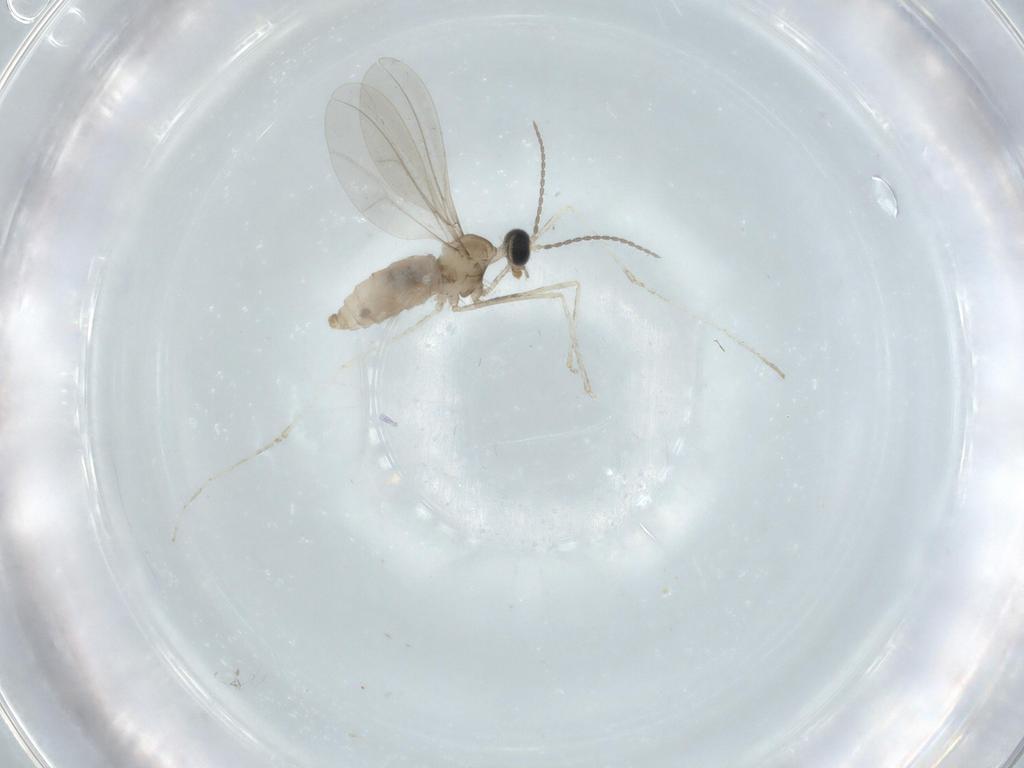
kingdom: Animalia
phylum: Arthropoda
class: Insecta
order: Diptera
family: Cecidomyiidae
